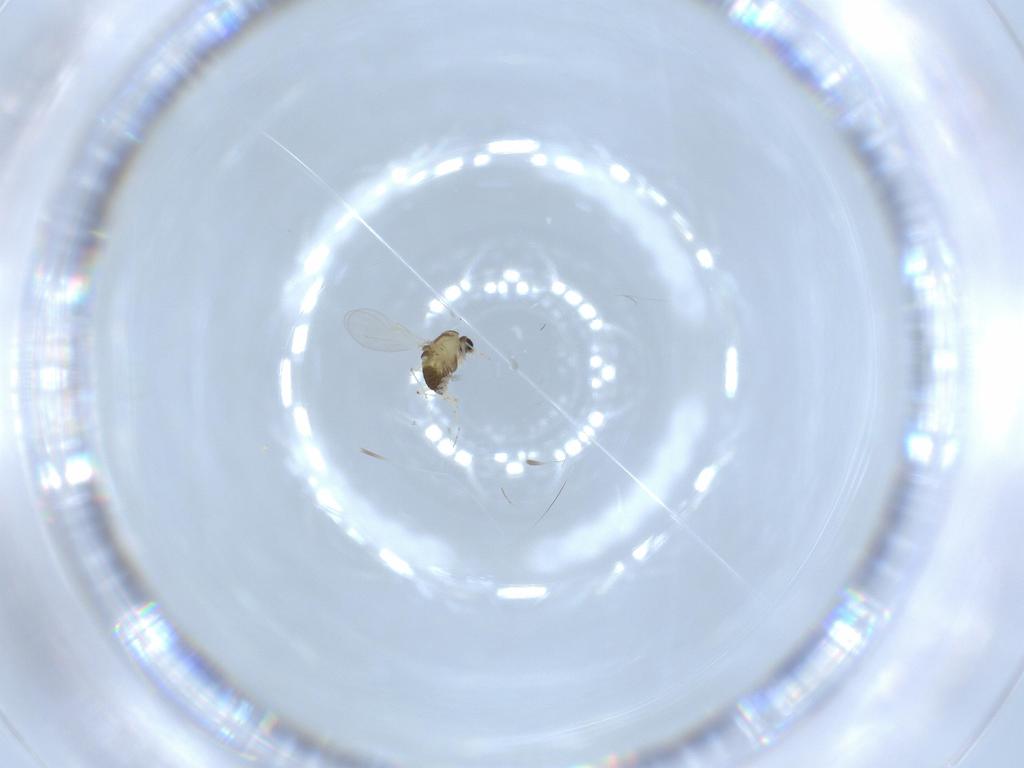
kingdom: Animalia
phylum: Arthropoda
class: Insecta
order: Diptera
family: Chironomidae
